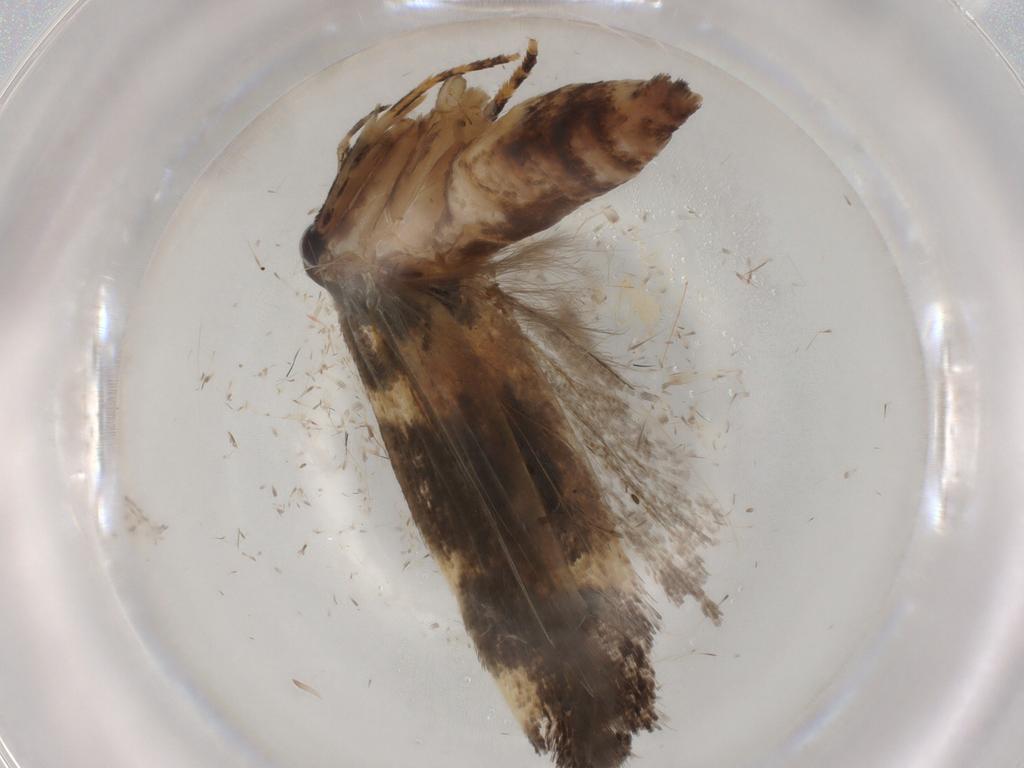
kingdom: Animalia
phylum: Arthropoda
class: Insecta
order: Lepidoptera
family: Gelechiidae
